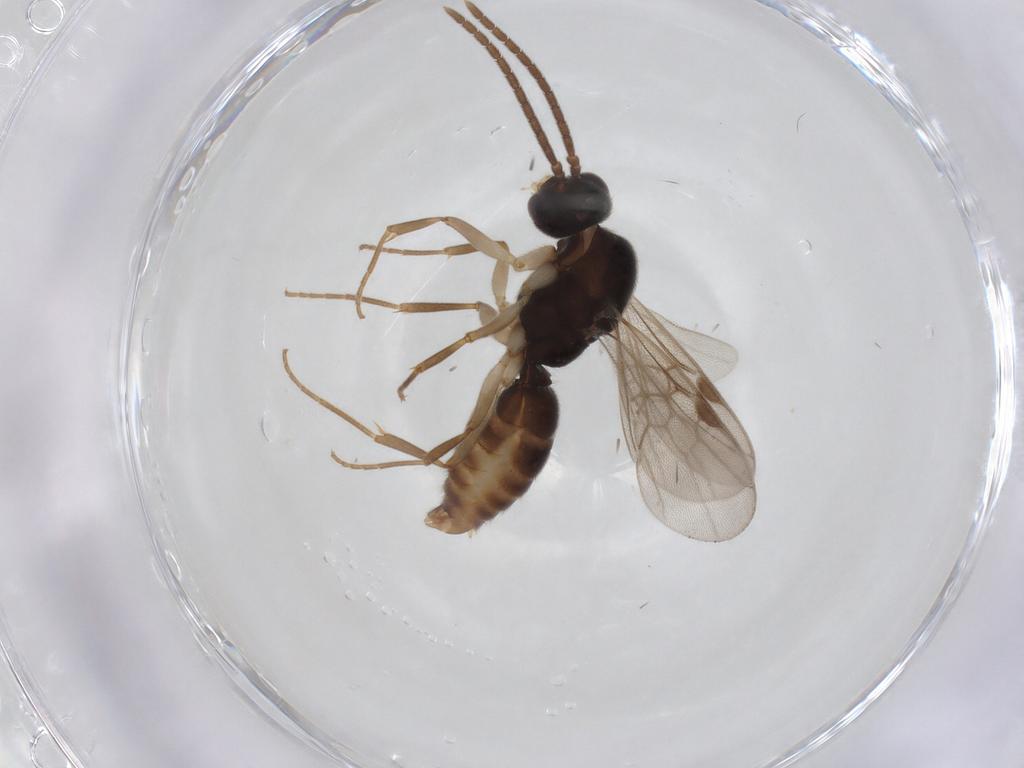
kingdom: Animalia
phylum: Arthropoda
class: Insecta
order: Hymenoptera
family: Formicidae
